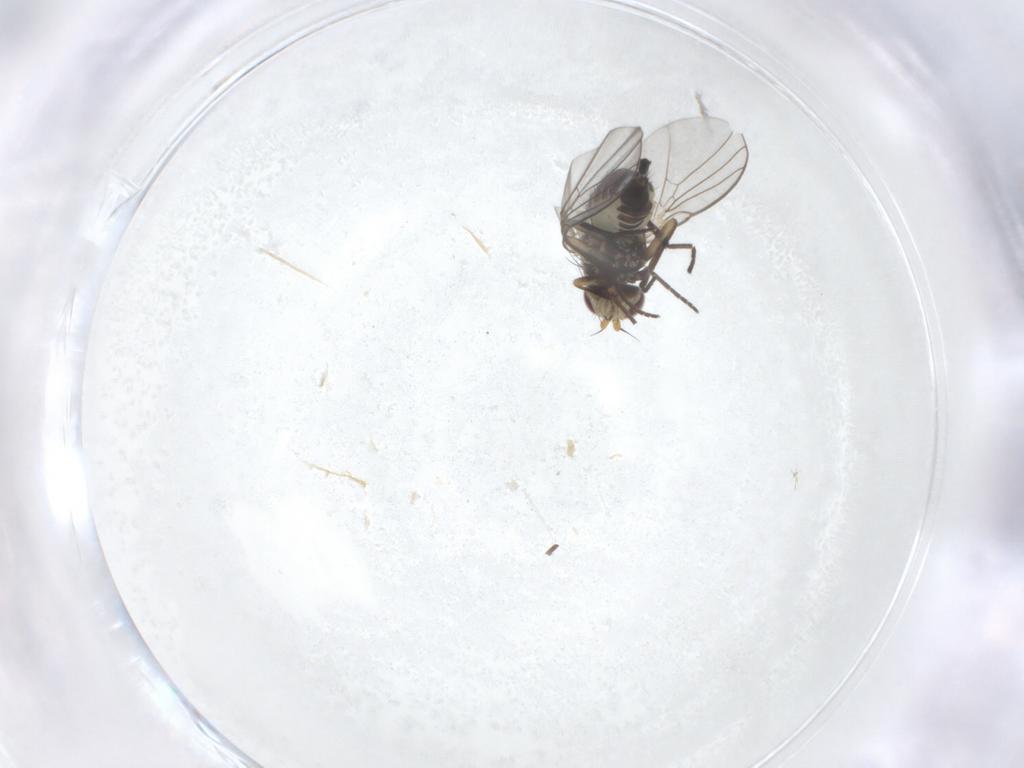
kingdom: Animalia
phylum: Arthropoda
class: Insecta
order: Diptera
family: Agromyzidae
